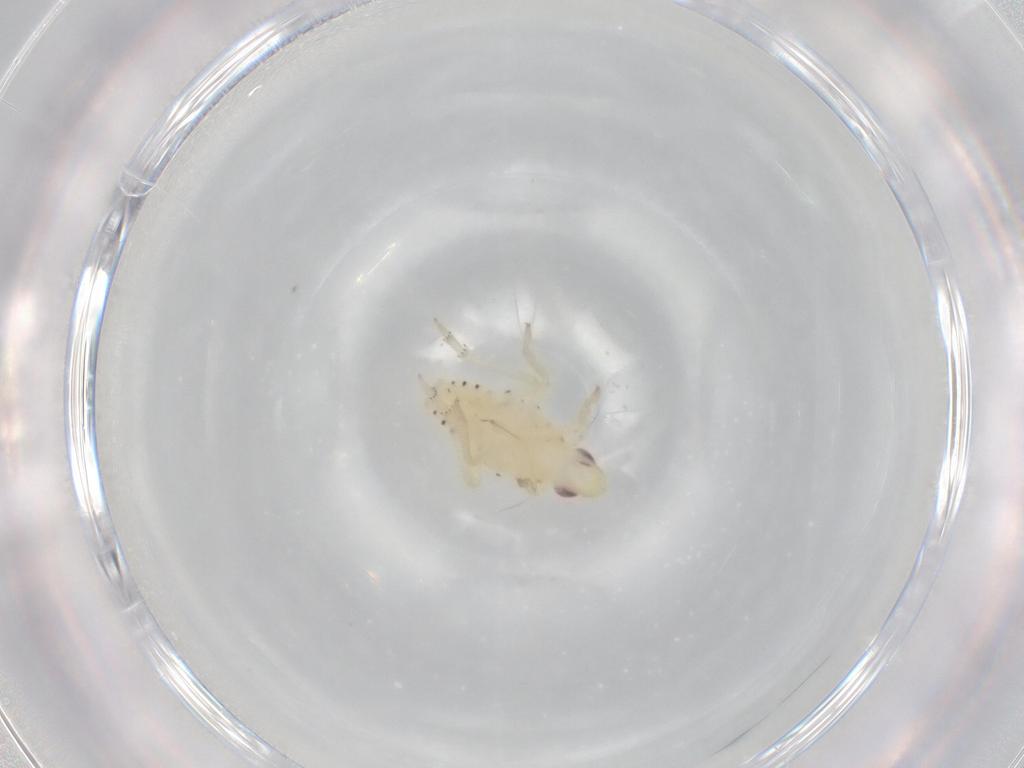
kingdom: Animalia
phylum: Arthropoda
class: Insecta
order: Hemiptera
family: Tropiduchidae
